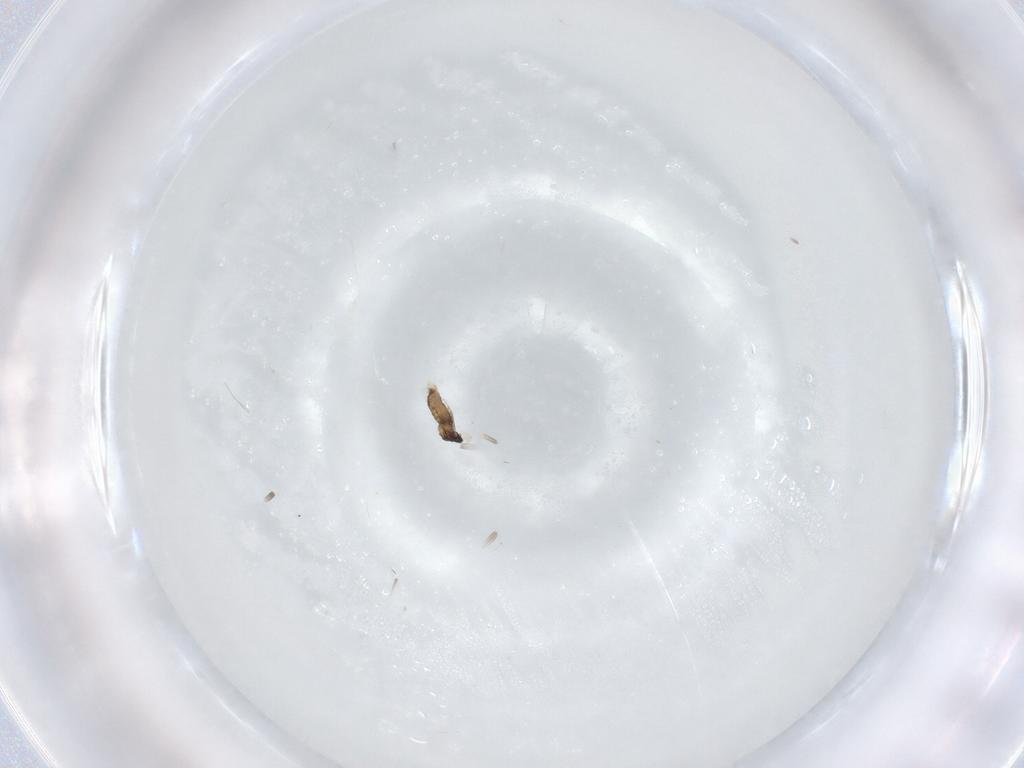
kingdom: Animalia
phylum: Arthropoda
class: Insecta
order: Diptera
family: Cecidomyiidae
